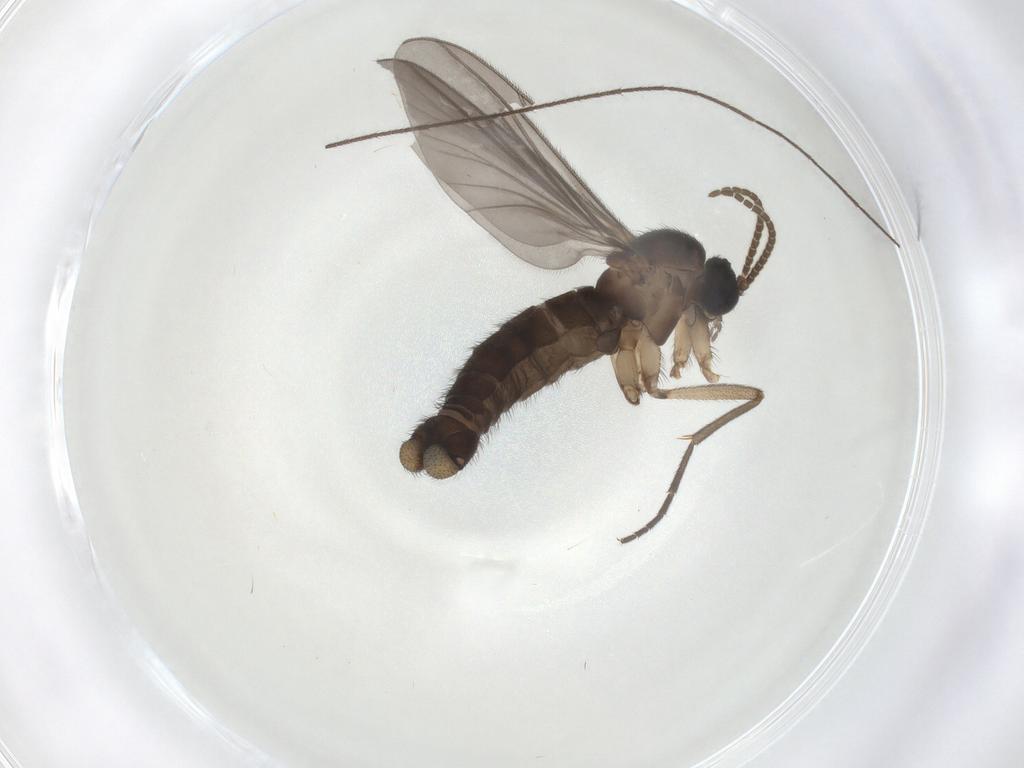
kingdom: Animalia
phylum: Arthropoda
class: Insecta
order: Diptera
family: Sciaridae
